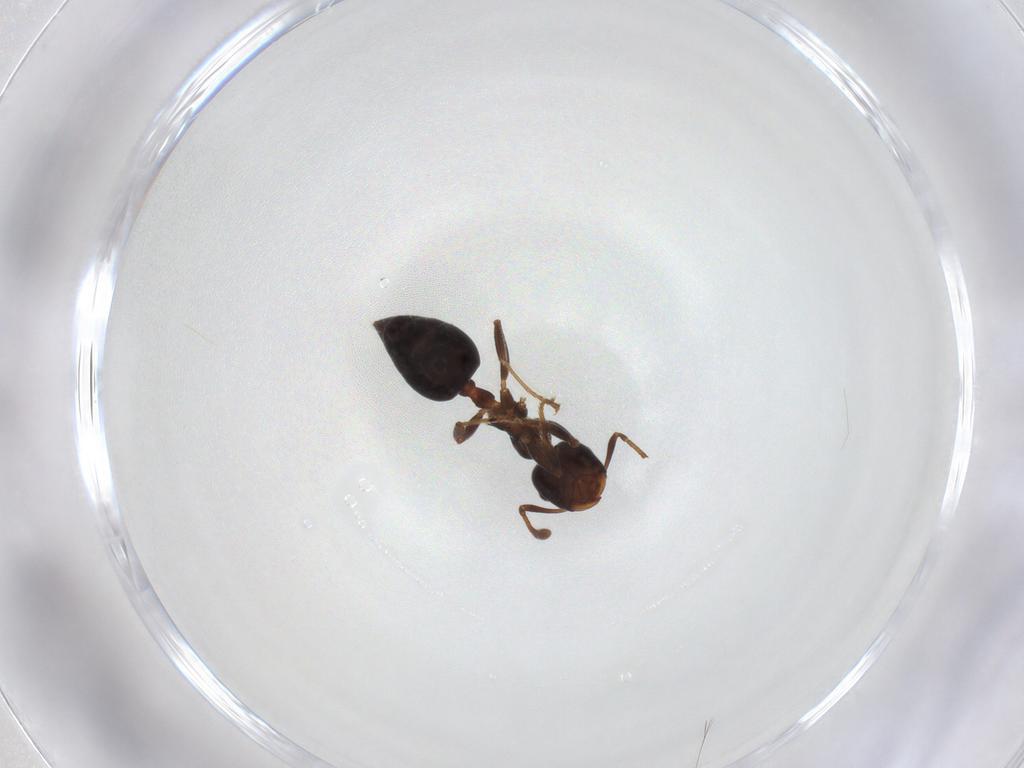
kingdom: Animalia
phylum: Arthropoda
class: Insecta
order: Hymenoptera
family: Formicidae
